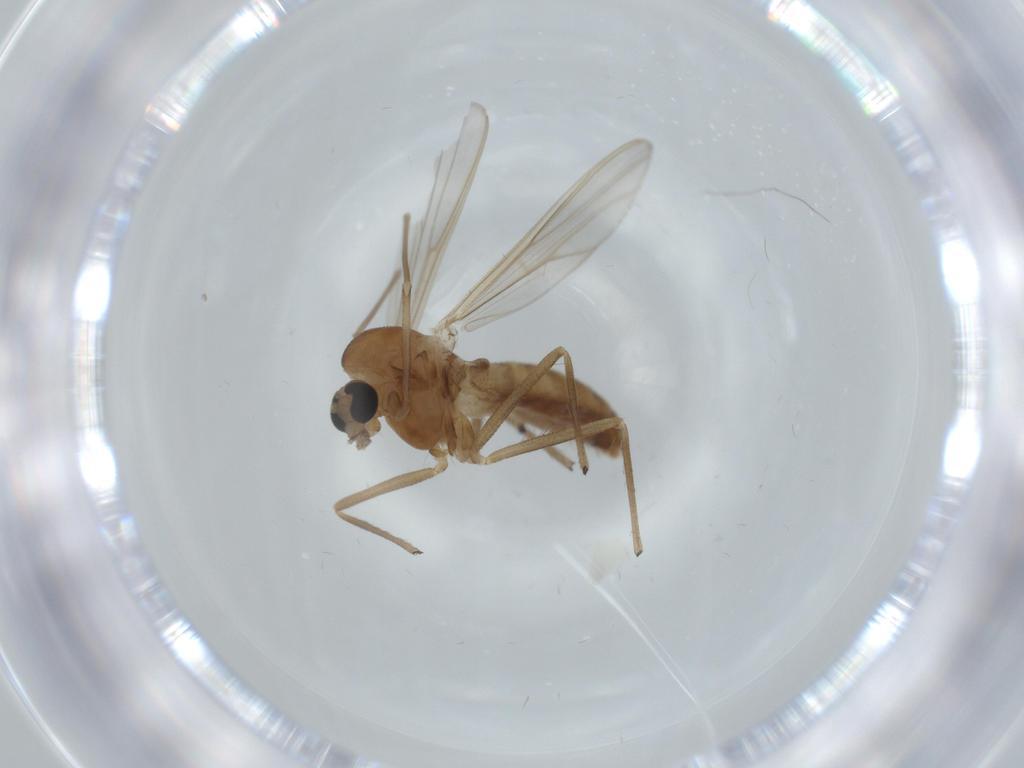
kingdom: Animalia
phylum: Arthropoda
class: Insecta
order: Diptera
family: Chironomidae
